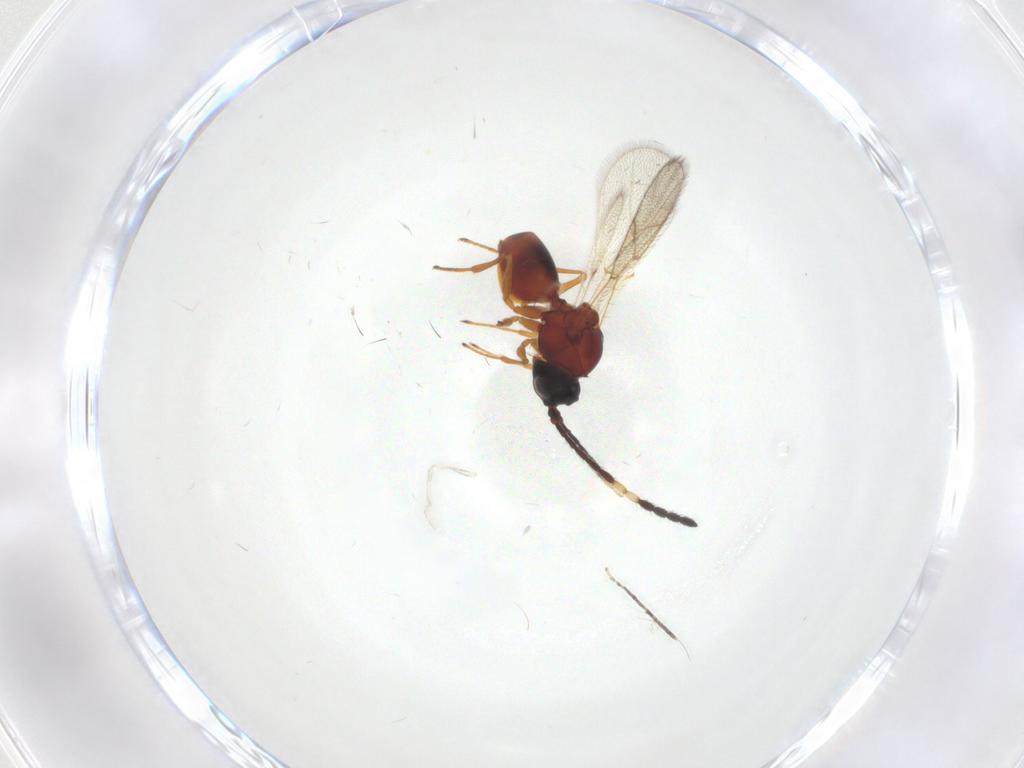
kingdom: Animalia
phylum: Arthropoda
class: Insecta
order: Hymenoptera
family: Figitidae
